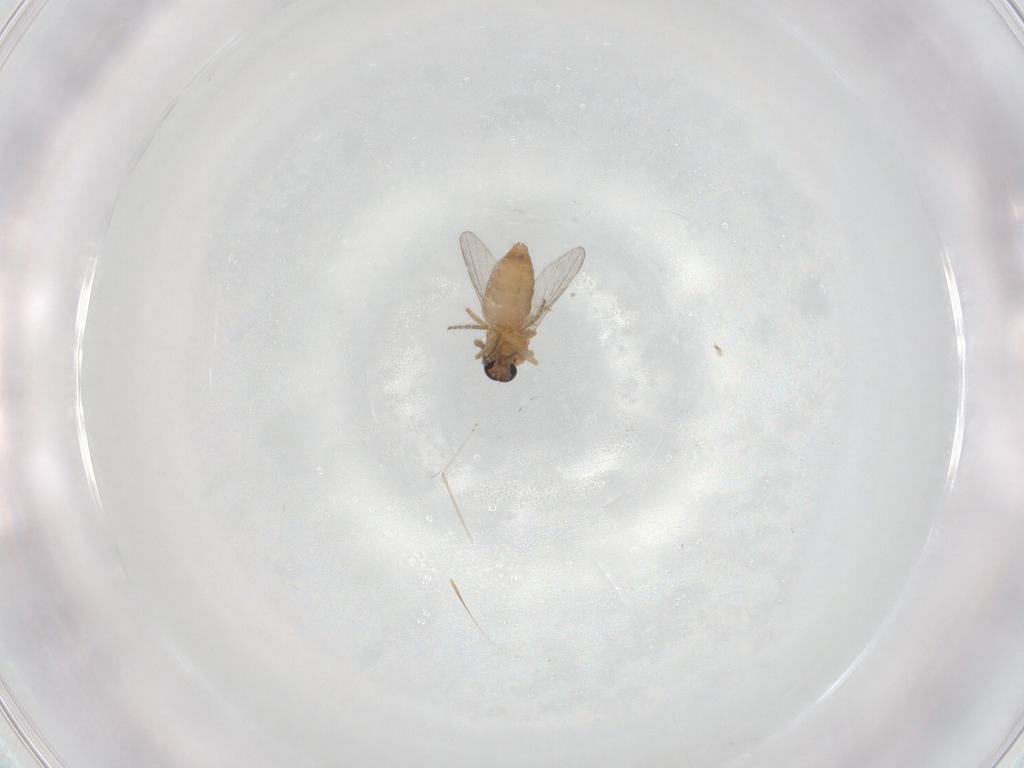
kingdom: Animalia
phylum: Arthropoda
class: Insecta
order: Diptera
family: Ceratopogonidae
